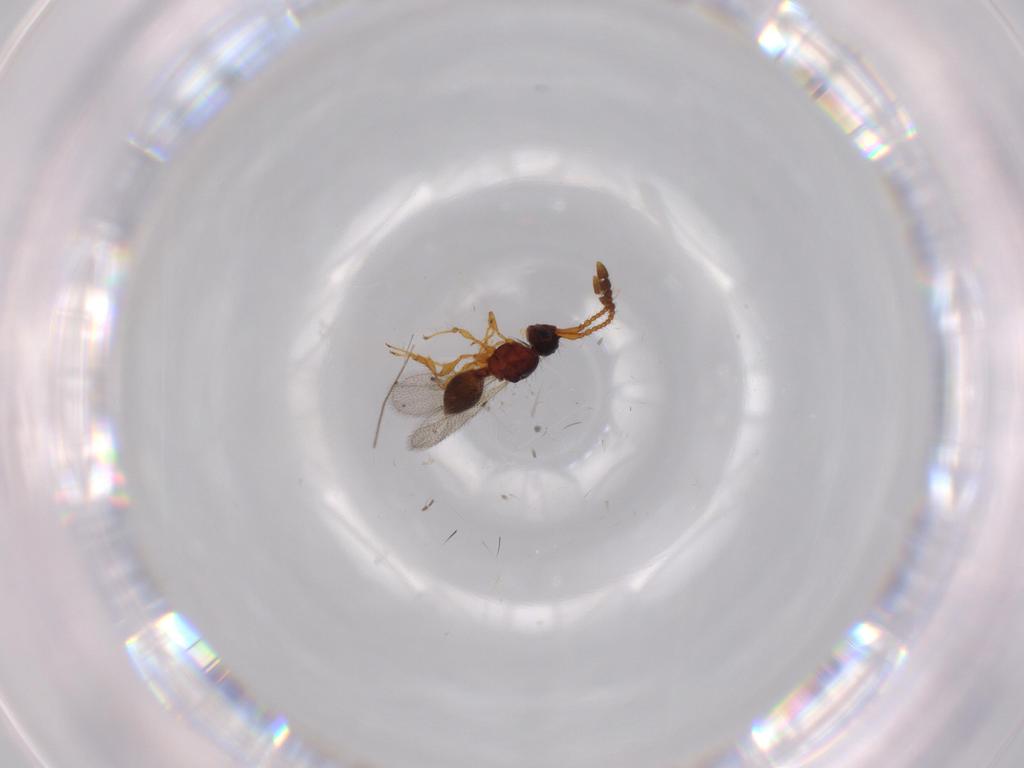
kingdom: Animalia
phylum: Arthropoda
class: Insecta
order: Hymenoptera
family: Diapriidae
